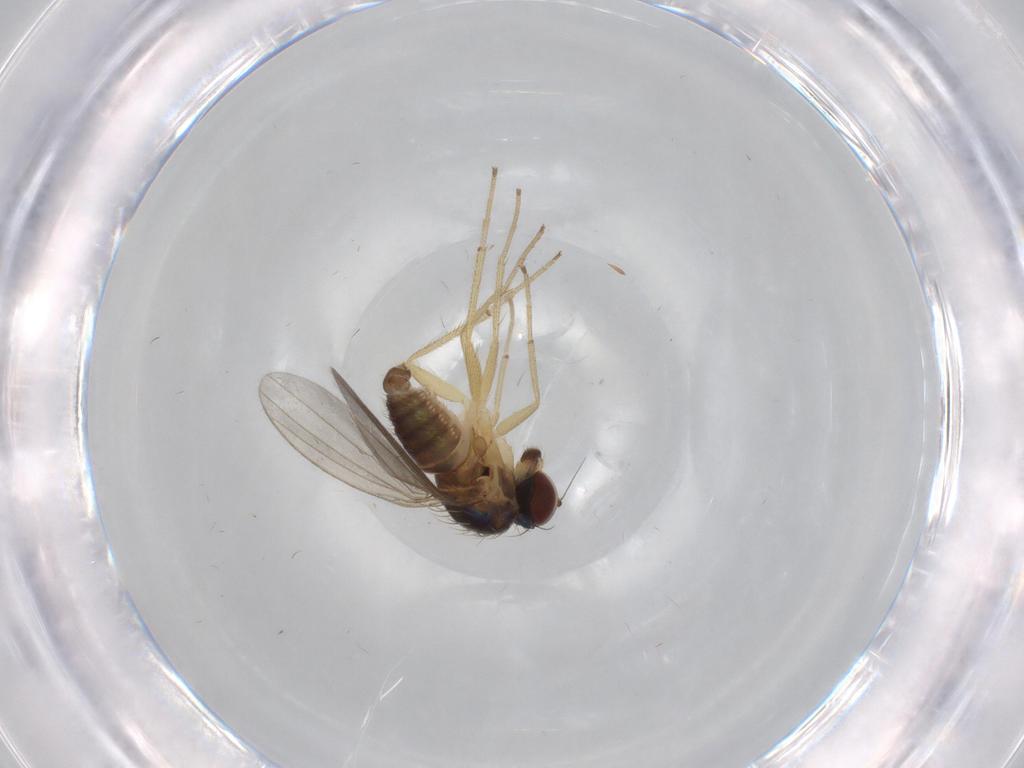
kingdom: Animalia
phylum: Arthropoda
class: Insecta
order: Diptera
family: Dolichopodidae
